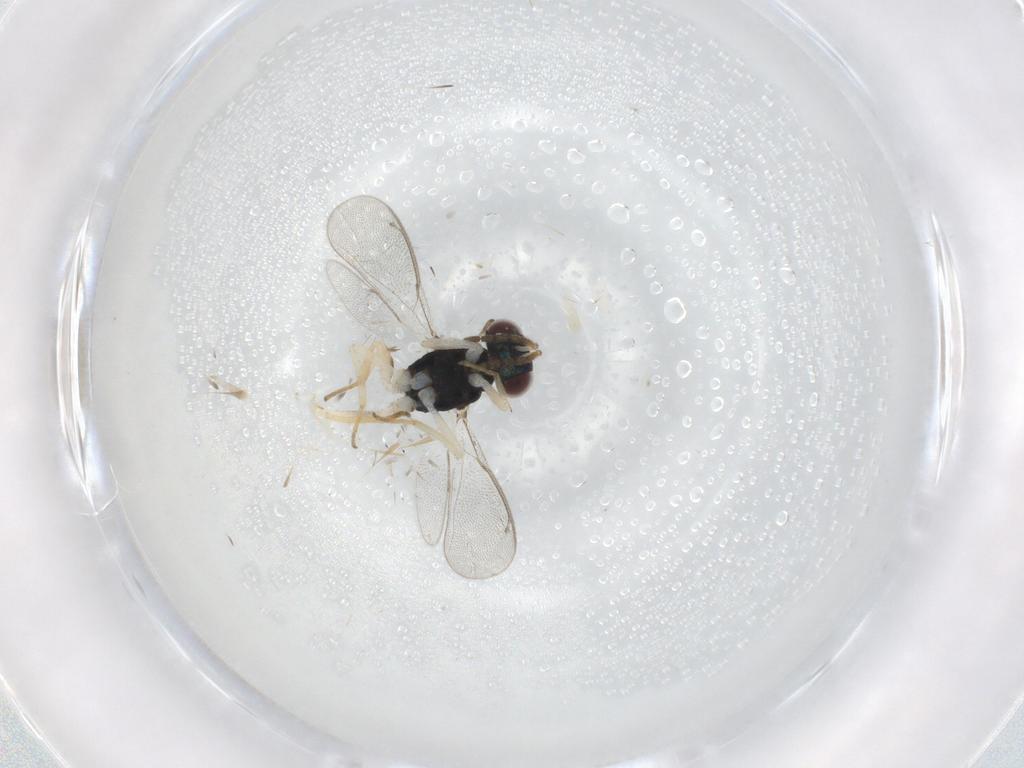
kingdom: Animalia
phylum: Arthropoda
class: Insecta
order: Hymenoptera
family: Eulophidae
